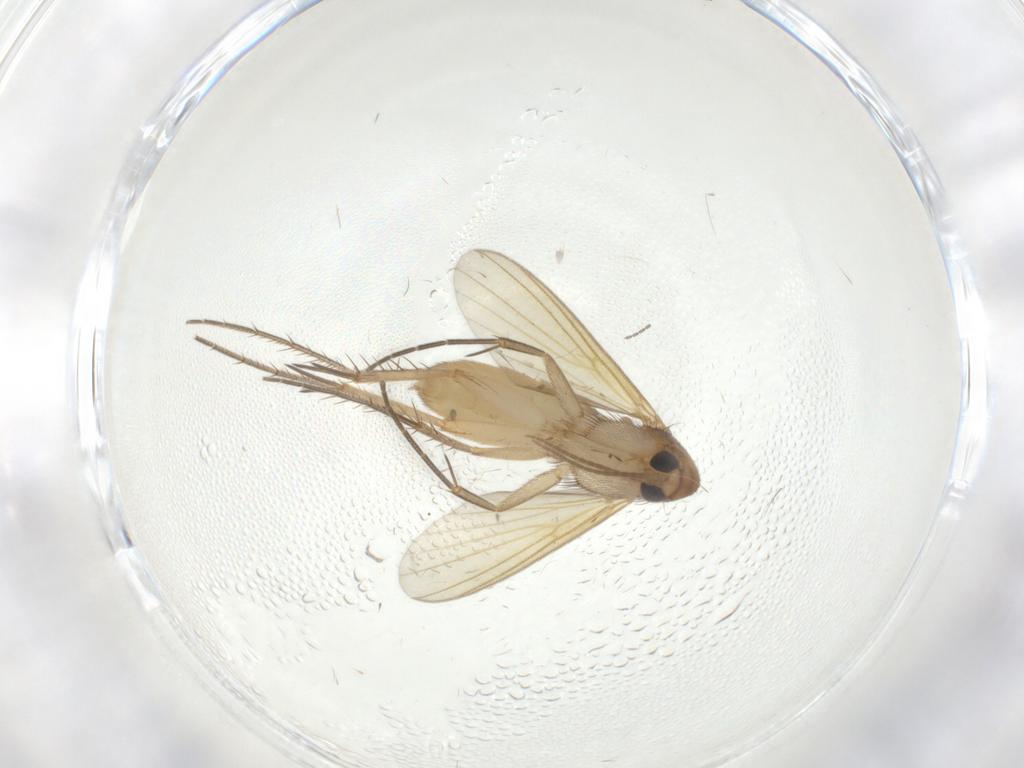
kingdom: Animalia
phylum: Arthropoda
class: Insecta
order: Diptera
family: Mycetophilidae
